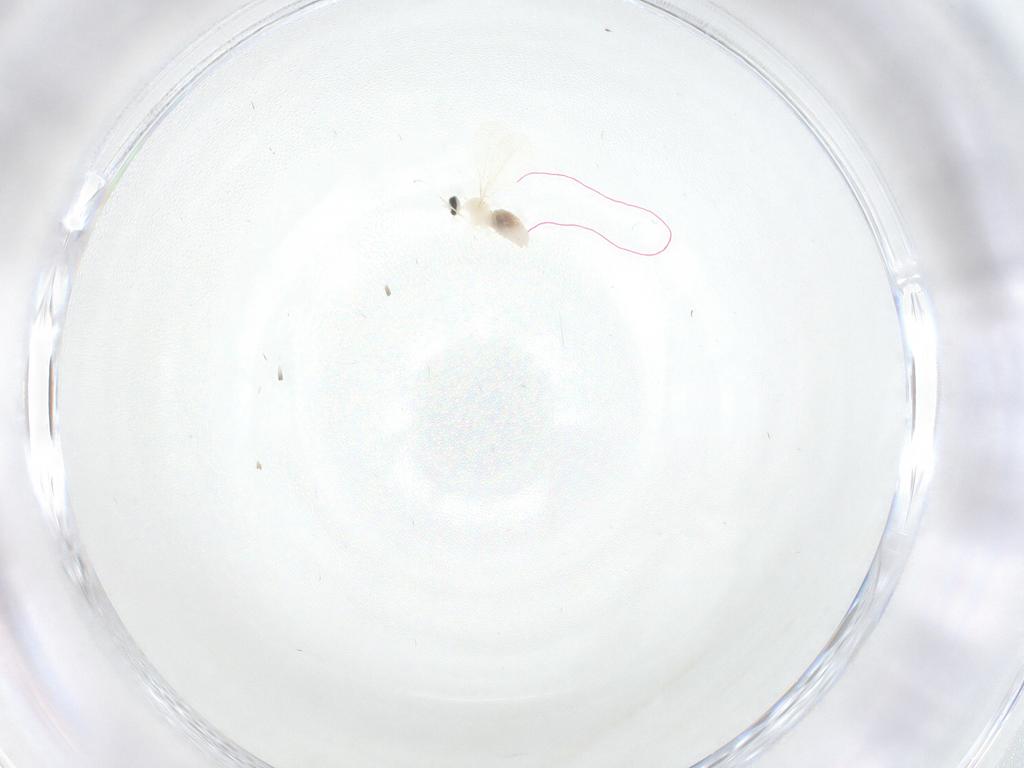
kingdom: Animalia
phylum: Arthropoda
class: Insecta
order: Diptera
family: Cecidomyiidae
